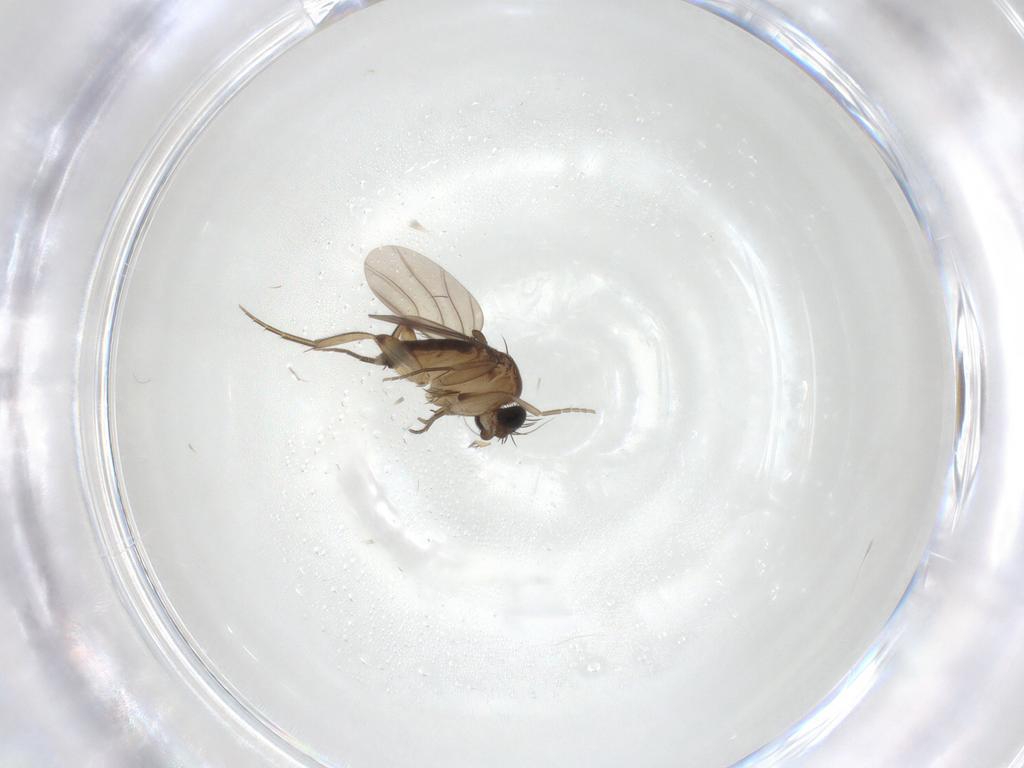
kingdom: Animalia
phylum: Arthropoda
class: Insecta
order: Diptera
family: Phoridae
